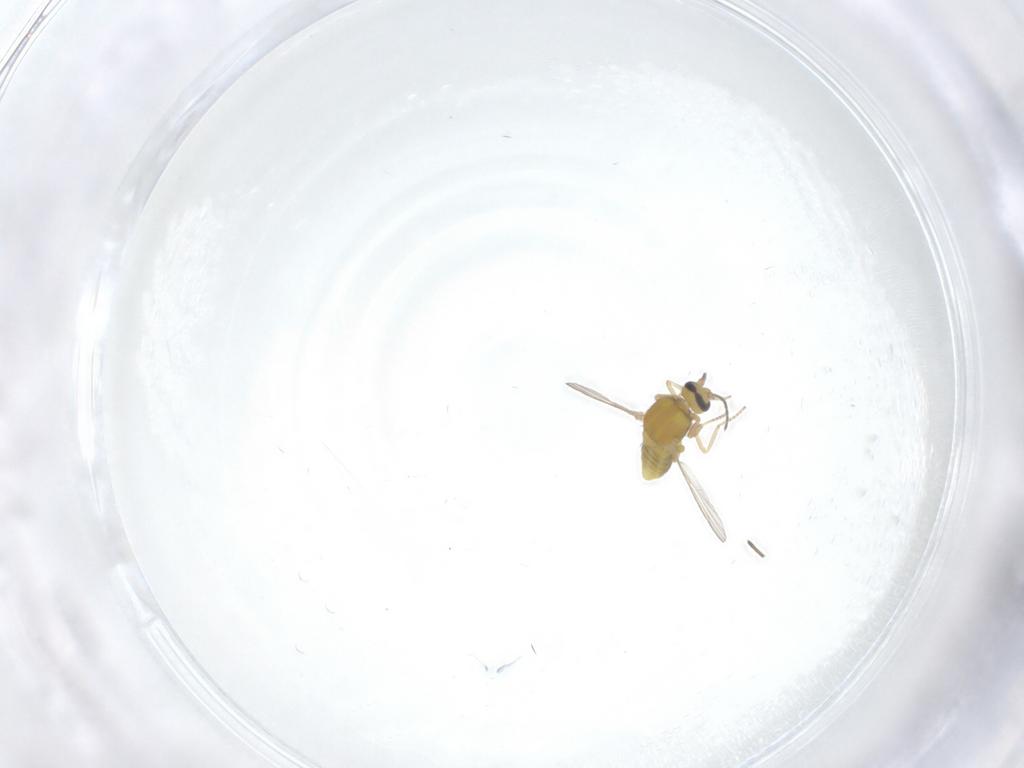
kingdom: Animalia
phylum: Arthropoda
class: Insecta
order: Diptera
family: Ceratopogonidae
